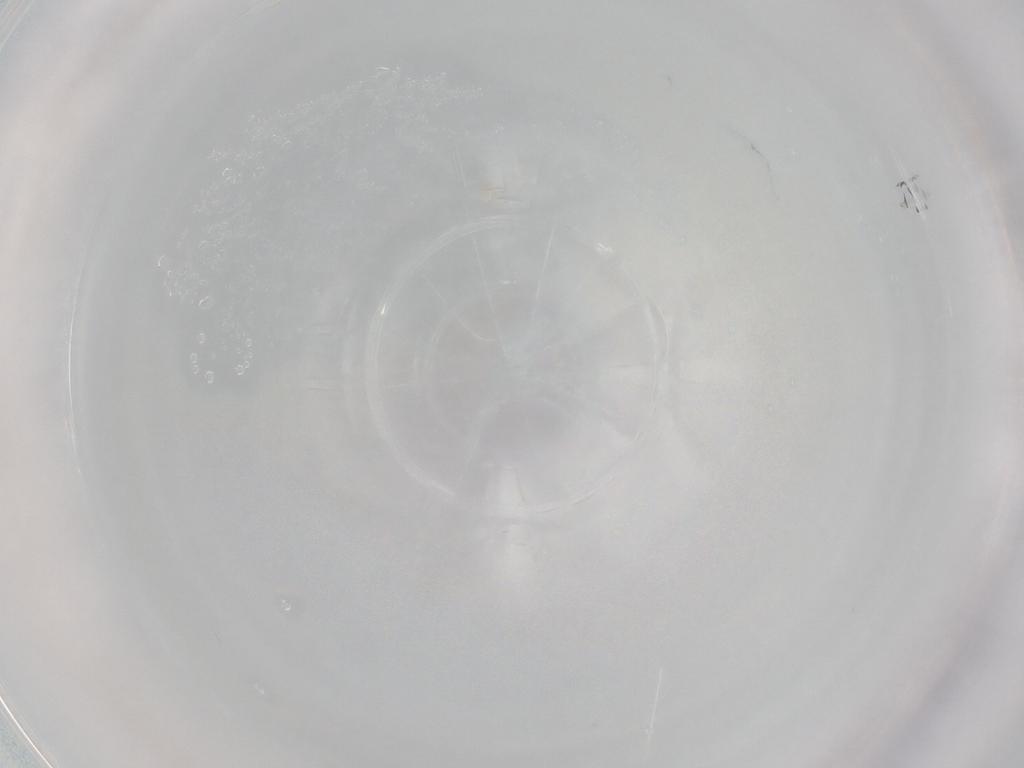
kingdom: Animalia
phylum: Arthropoda
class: Collembola
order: Entomobryomorpha
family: Entomobryidae
